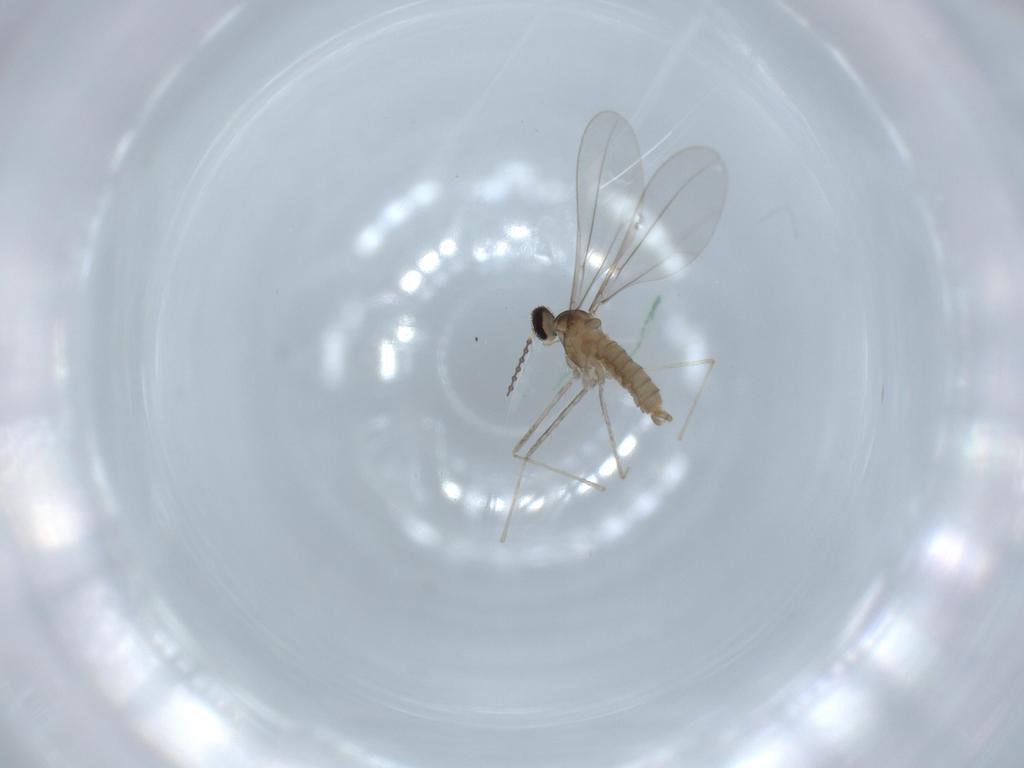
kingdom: Animalia
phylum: Arthropoda
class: Insecta
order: Diptera
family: Cecidomyiidae
